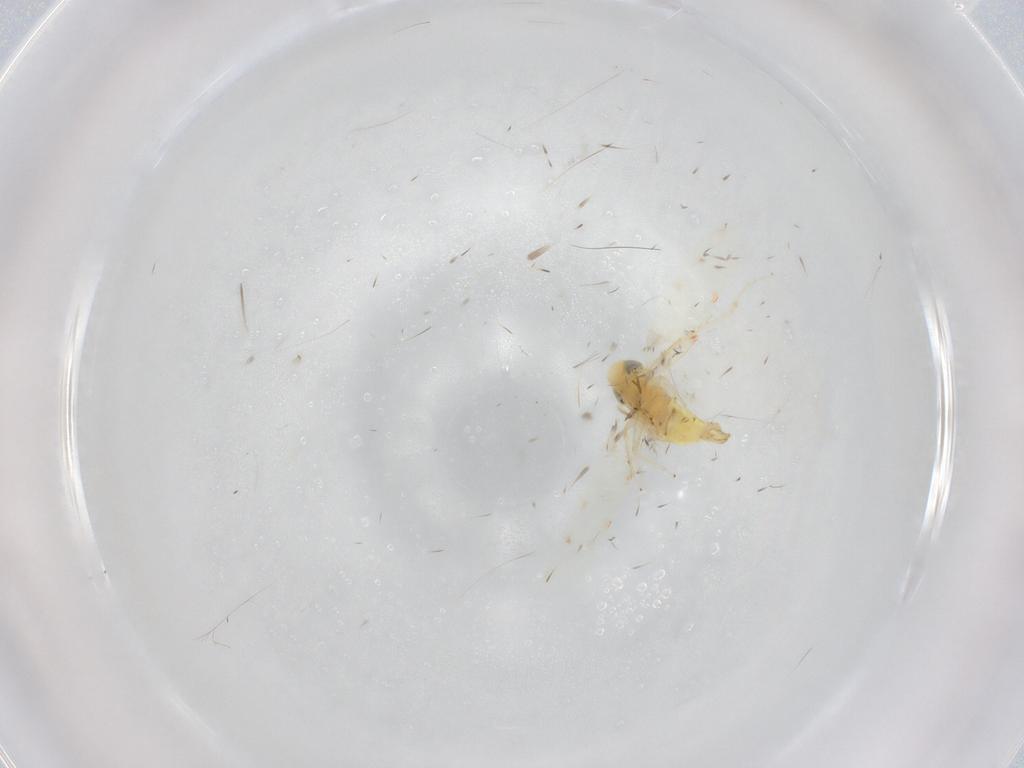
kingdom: Animalia
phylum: Arthropoda
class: Insecta
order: Hemiptera
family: Cicadellidae
